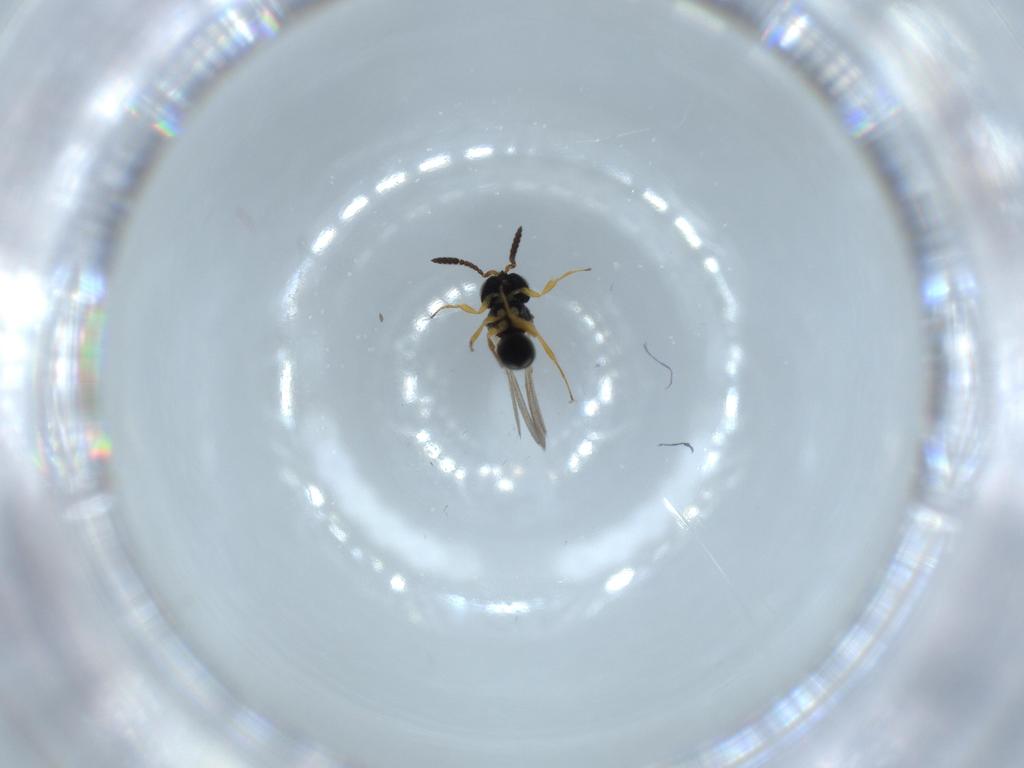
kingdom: Animalia
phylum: Arthropoda
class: Insecta
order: Hymenoptera
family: Scelionidae
